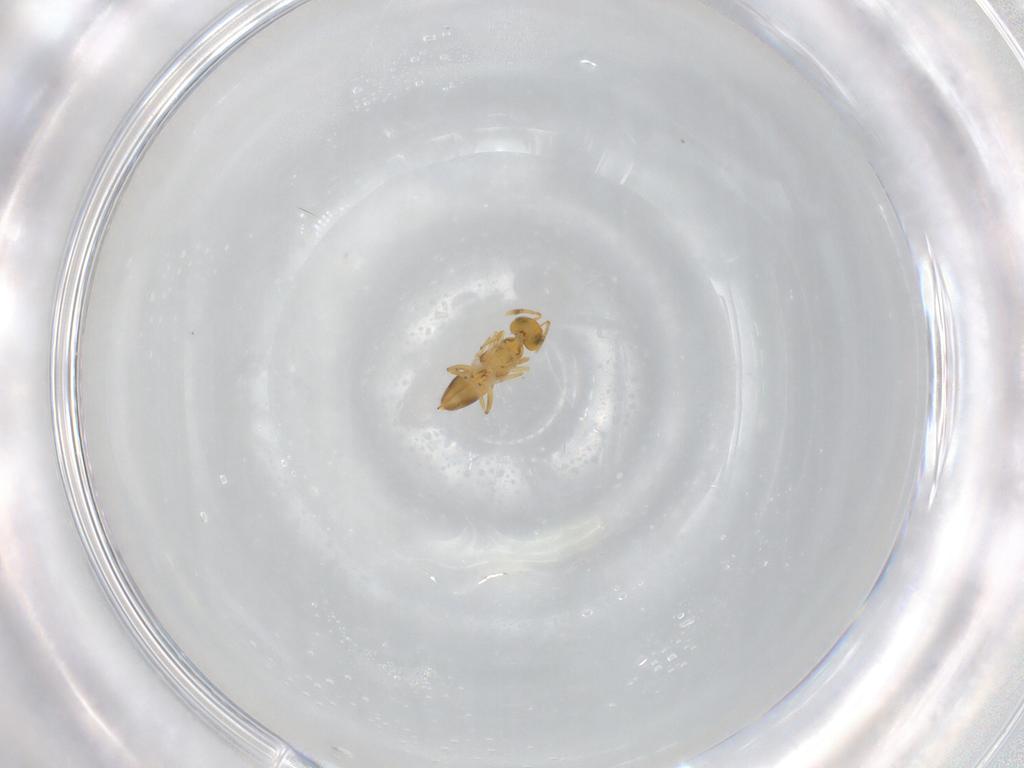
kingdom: Animalia
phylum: Arthropoda
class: Insecta
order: Hymenoptera
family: Encyrtidae
